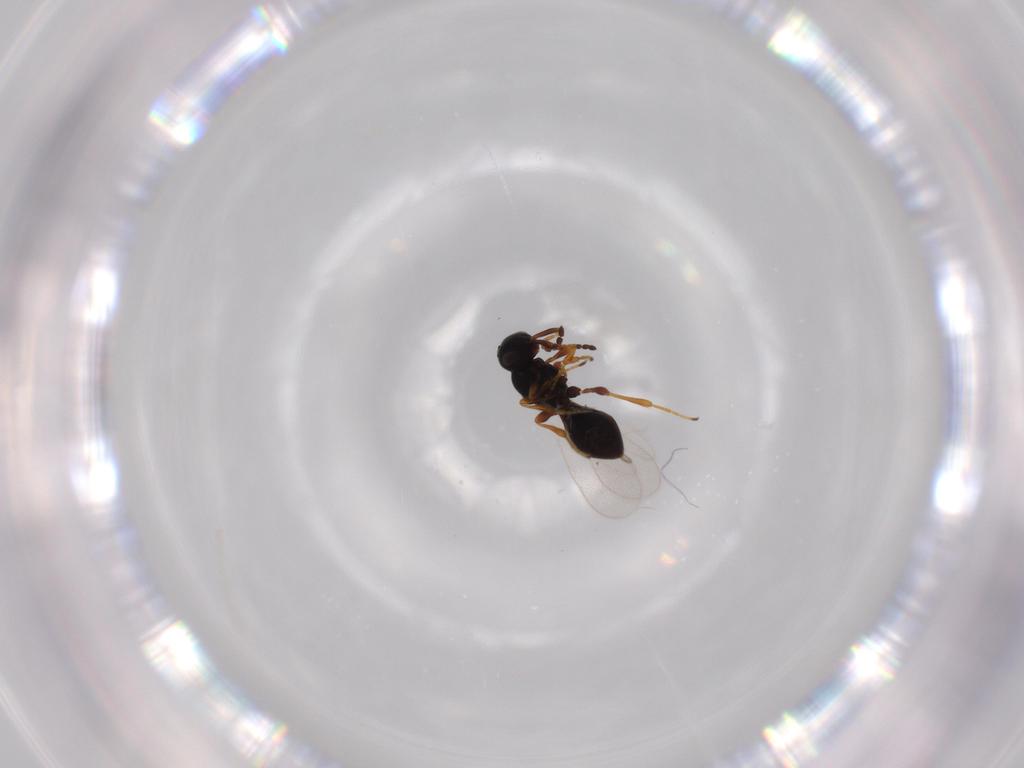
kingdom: Animalia
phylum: Arthropoda
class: Insecta
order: Hymenoptera
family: Platygastridae
